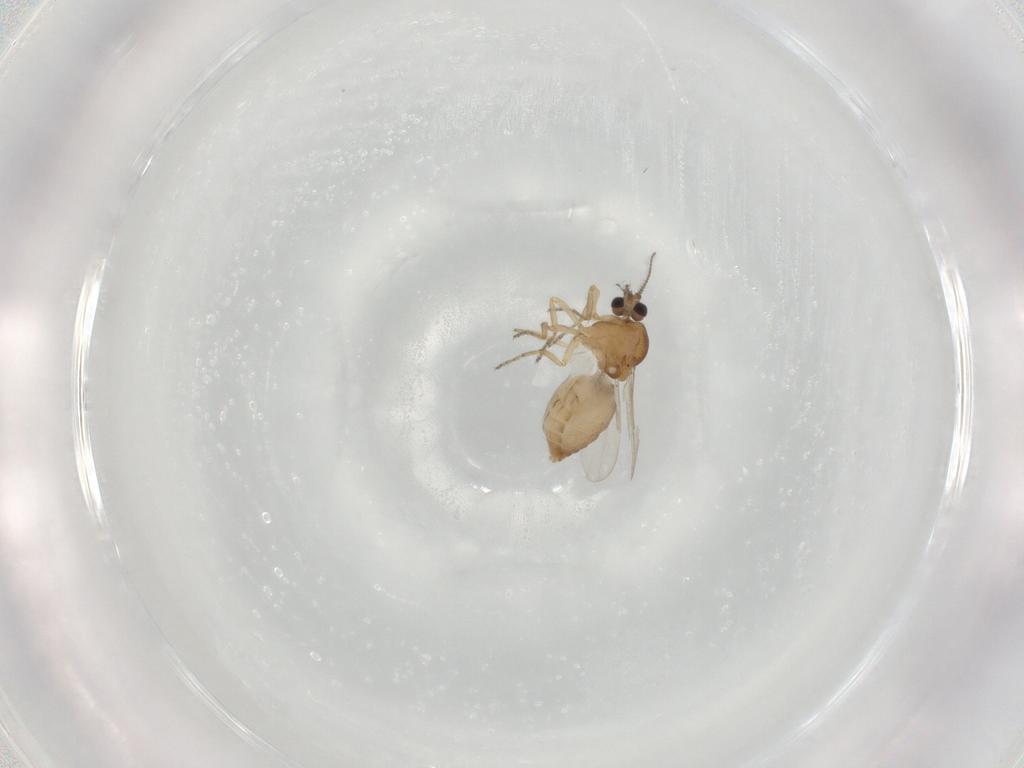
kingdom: Animalia
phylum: Arthropoda
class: Insecta
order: Diptera
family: Ceratopogonidae
